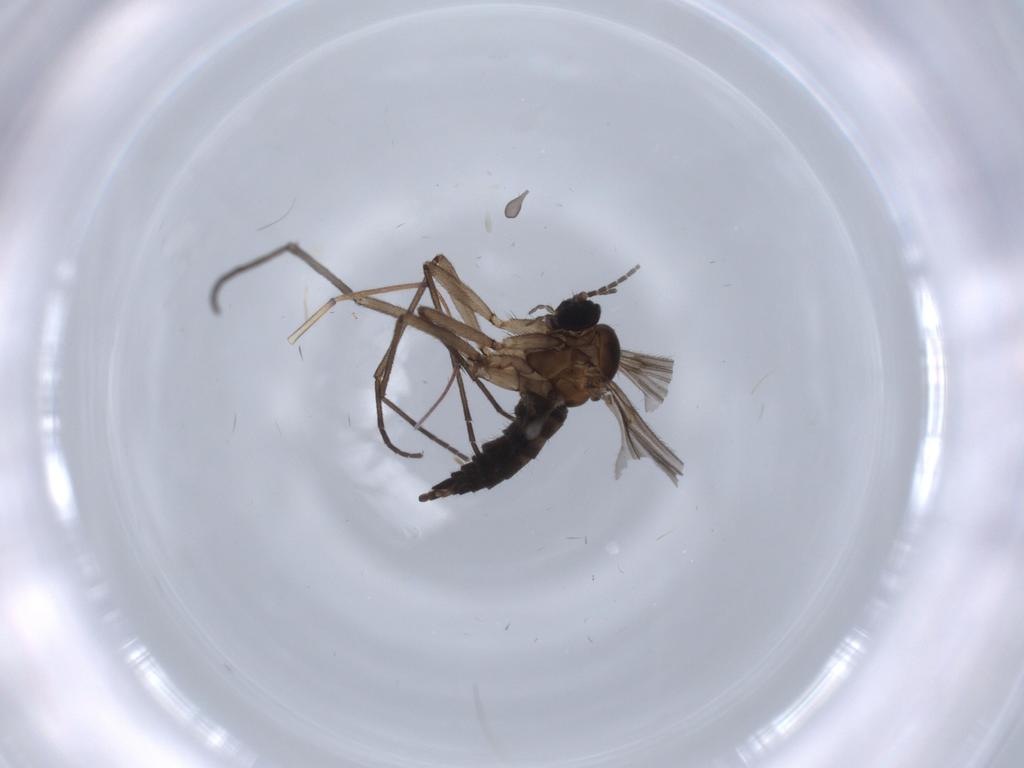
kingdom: Animalia
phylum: Arthropoda
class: Insecta
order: Diptera
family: Sciaridae
